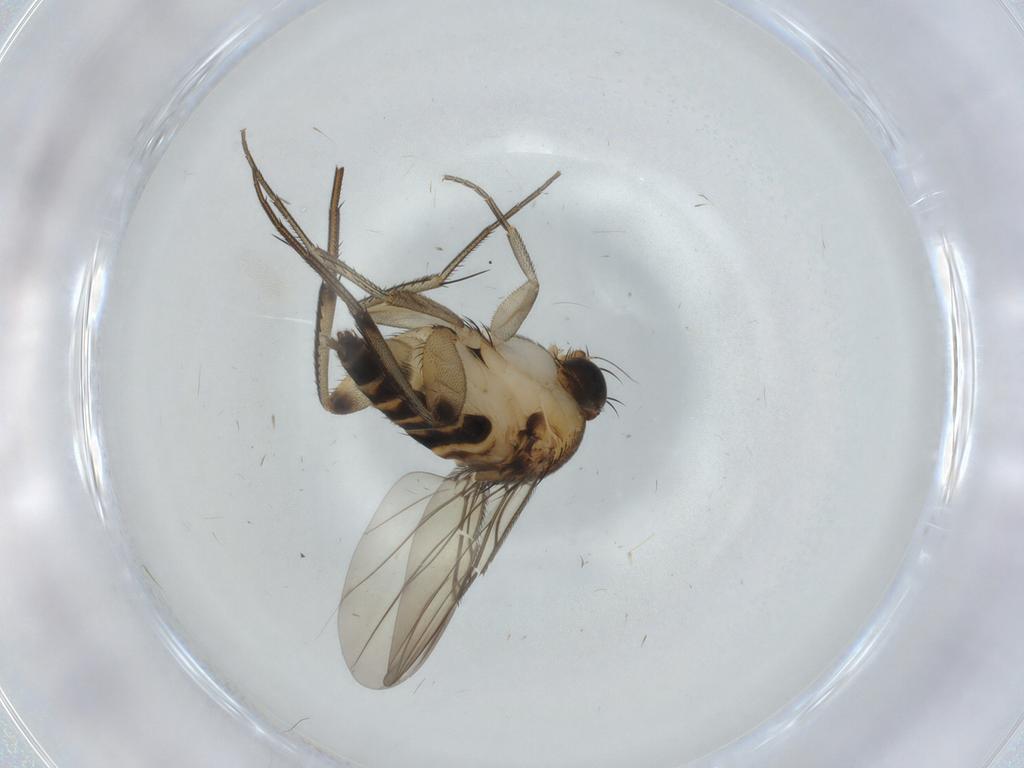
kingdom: Animalia
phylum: Arthropoda
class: Insecta
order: Diptera
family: Phoridae
